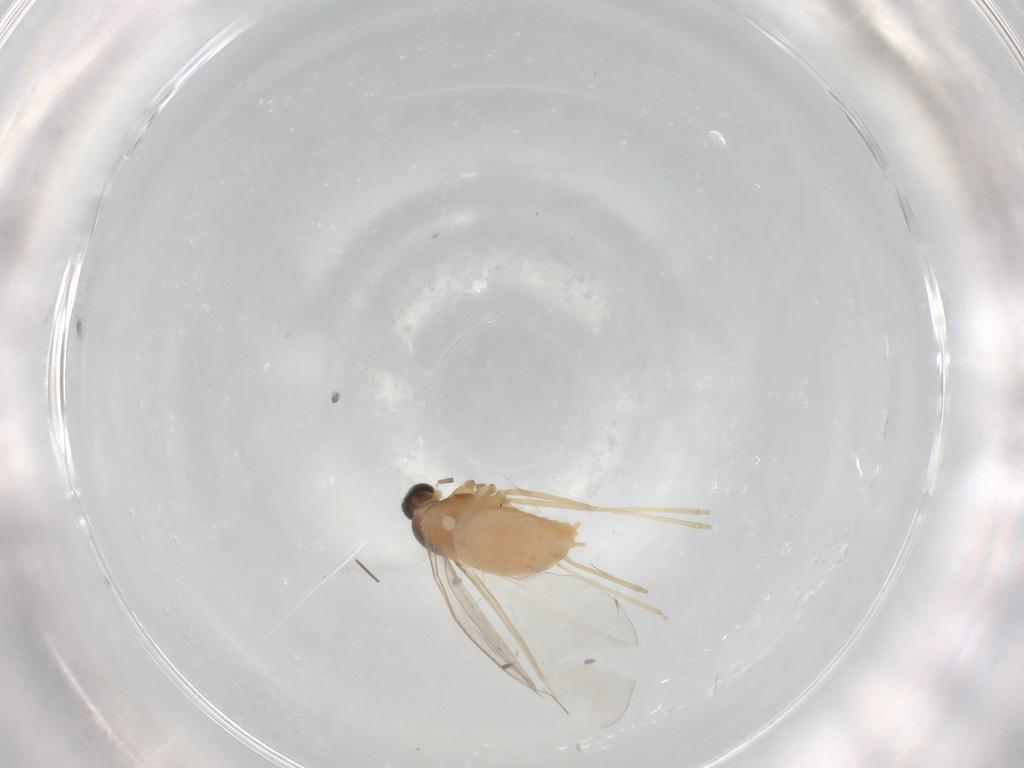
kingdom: Animalia
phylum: Arthropoda
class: Insecta
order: Diptera
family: Cecidomyiidae
